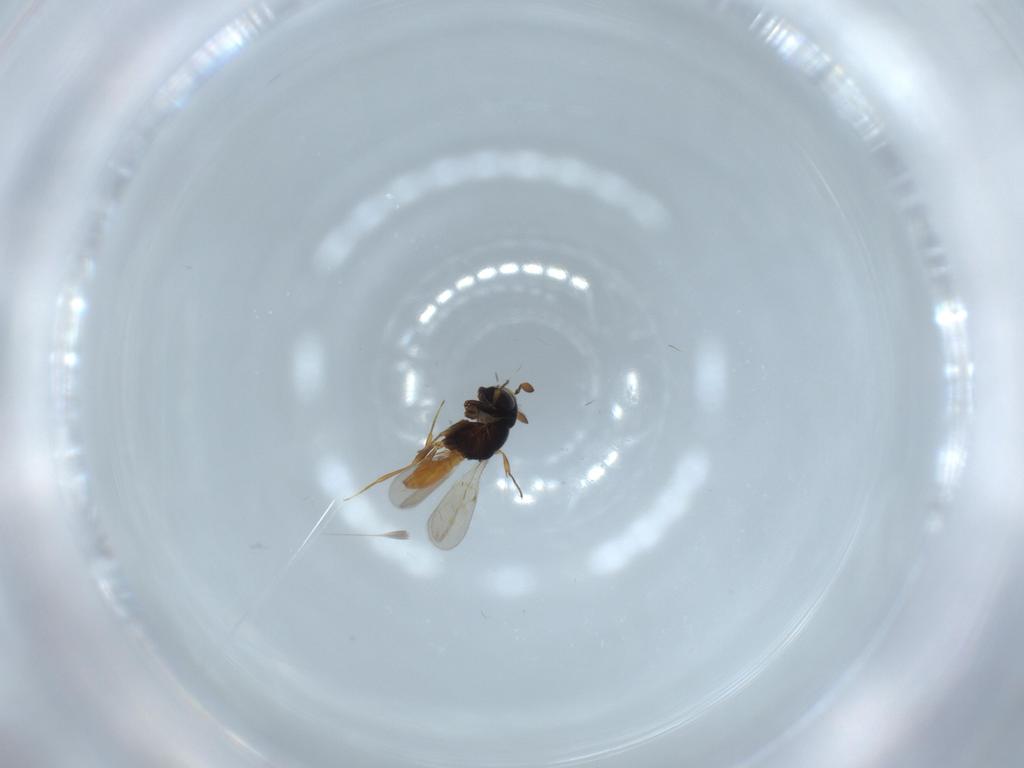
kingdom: Animalia
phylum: Arthropoda
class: Insecta
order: Hymenoptera
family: Scelionidae
